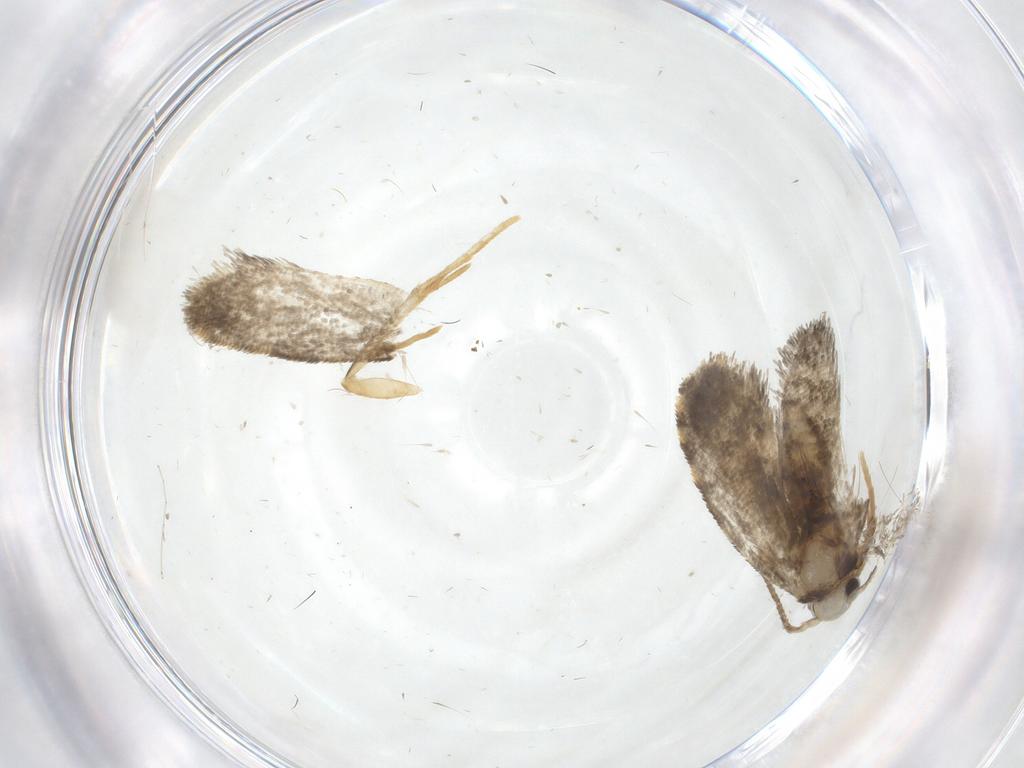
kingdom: Animalia
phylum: Arthropoda
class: Insecta
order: Lepidoptera
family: Psychidae
